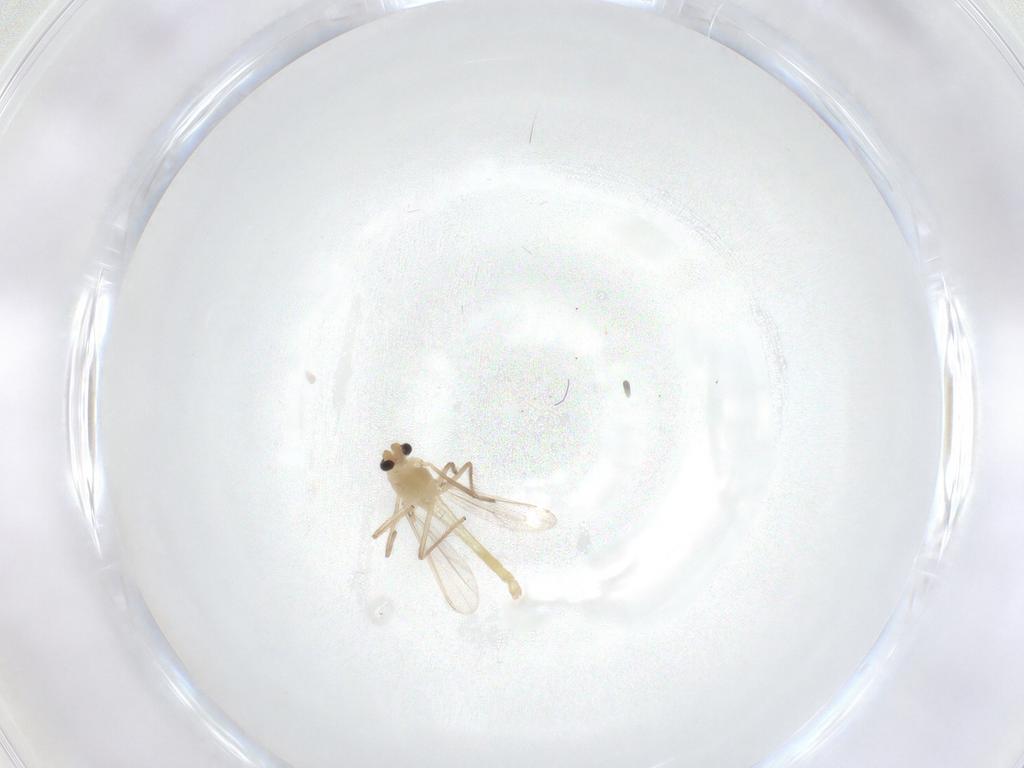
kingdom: Animalia
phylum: Arthropoda
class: Insecta
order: Diptera
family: Chironomidae
